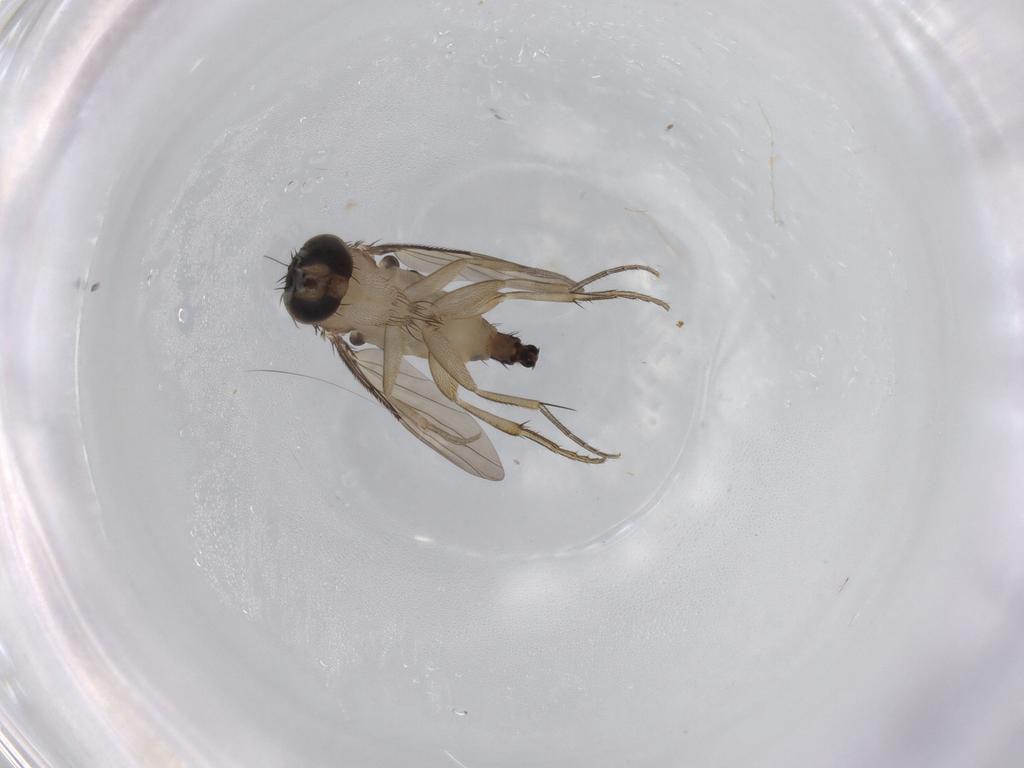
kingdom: Animalia
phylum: Arthropoda
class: Insecta
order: Diptera
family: Phoridae
